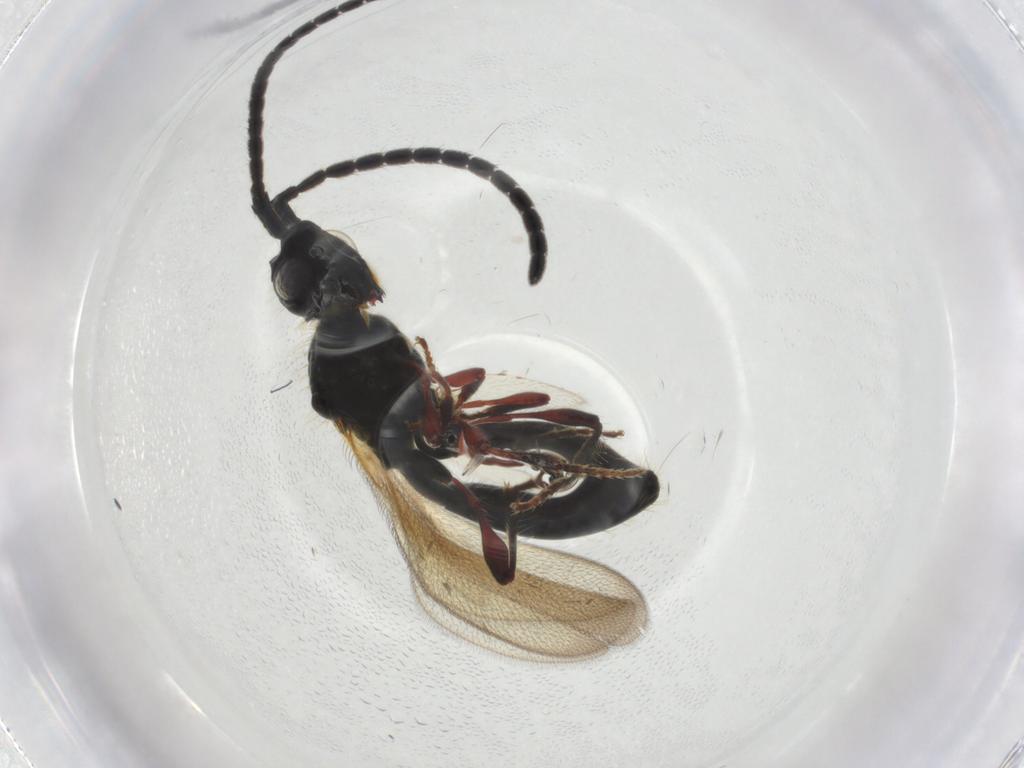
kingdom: Animalia
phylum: Arthropoda
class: Insecta
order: Hymenoptera
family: Diapriidae
